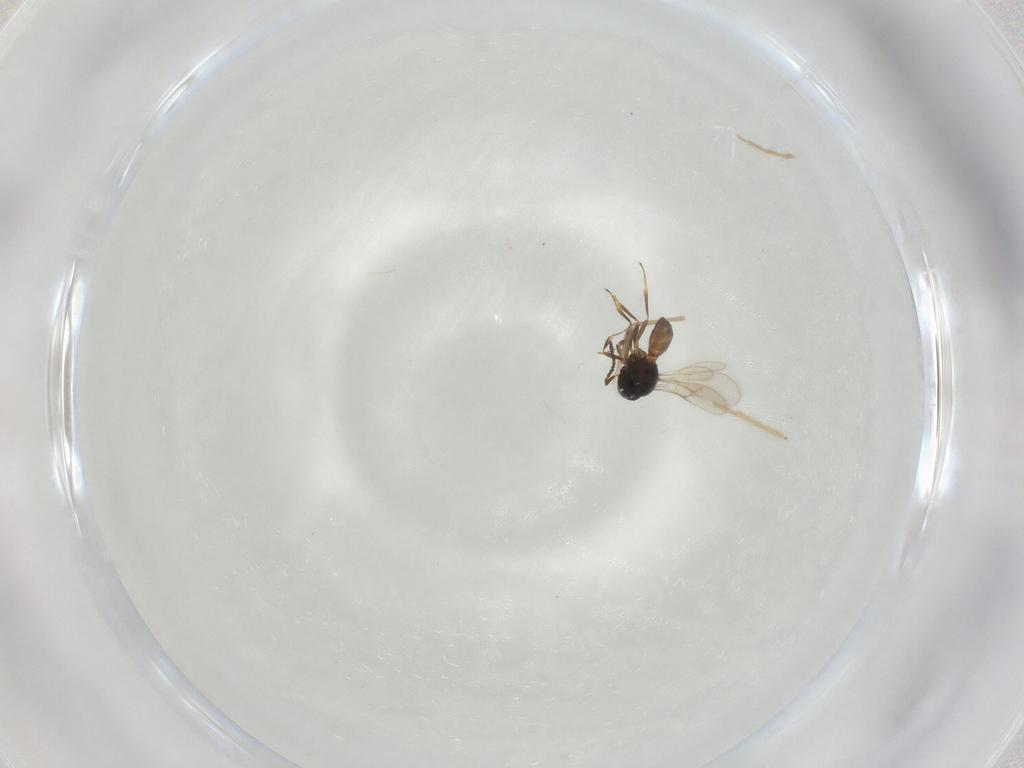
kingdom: Animalia
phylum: Arthropoda
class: Insecta
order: Hymenoptera
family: Scelionidae
